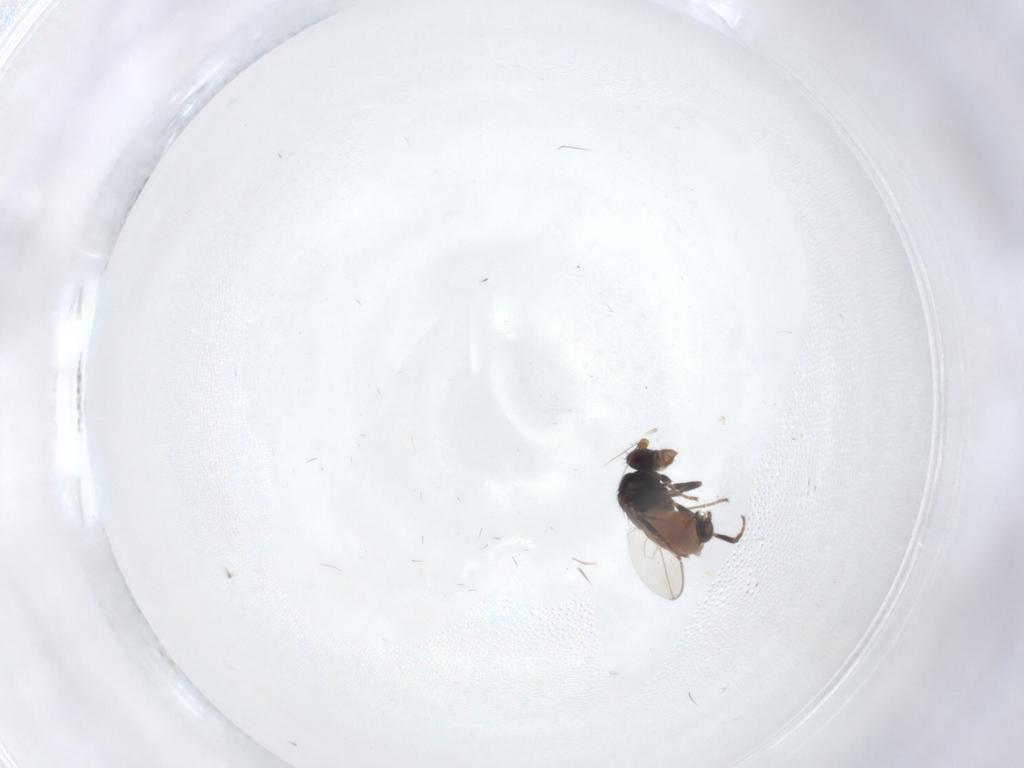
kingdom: Animalia
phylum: Arthropoda
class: Insecta
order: Diptera
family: Sphaeroceridae
